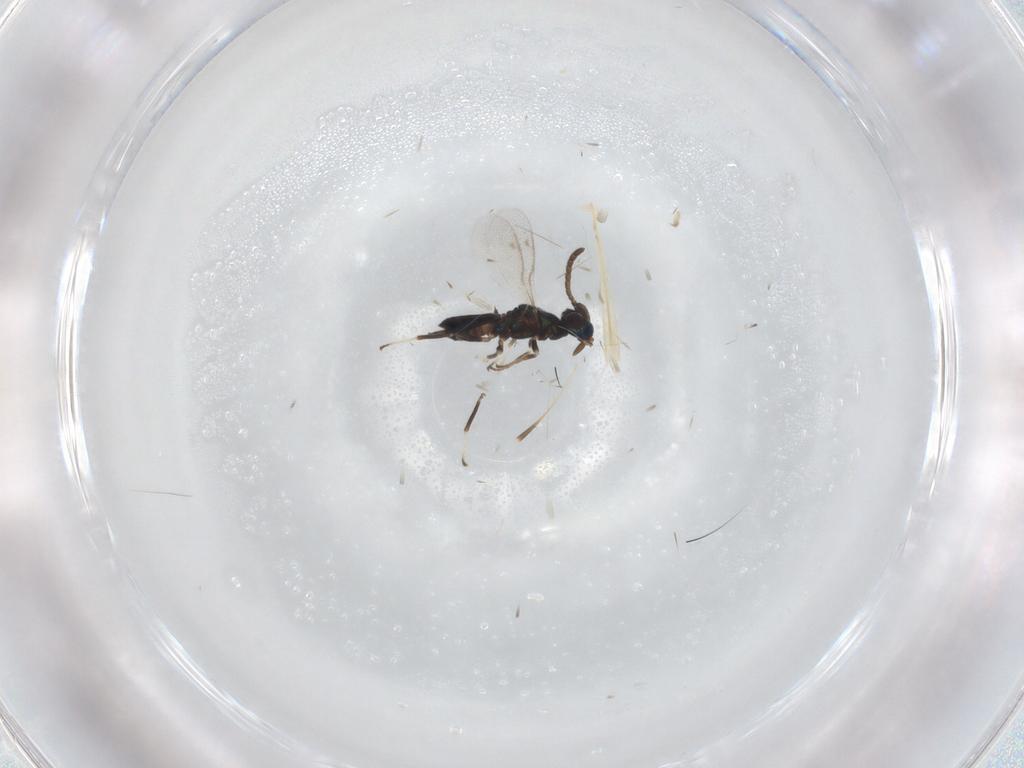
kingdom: Animalia
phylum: Arthropoda
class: Insecta
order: Hymenoptera
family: Eupelmidae
